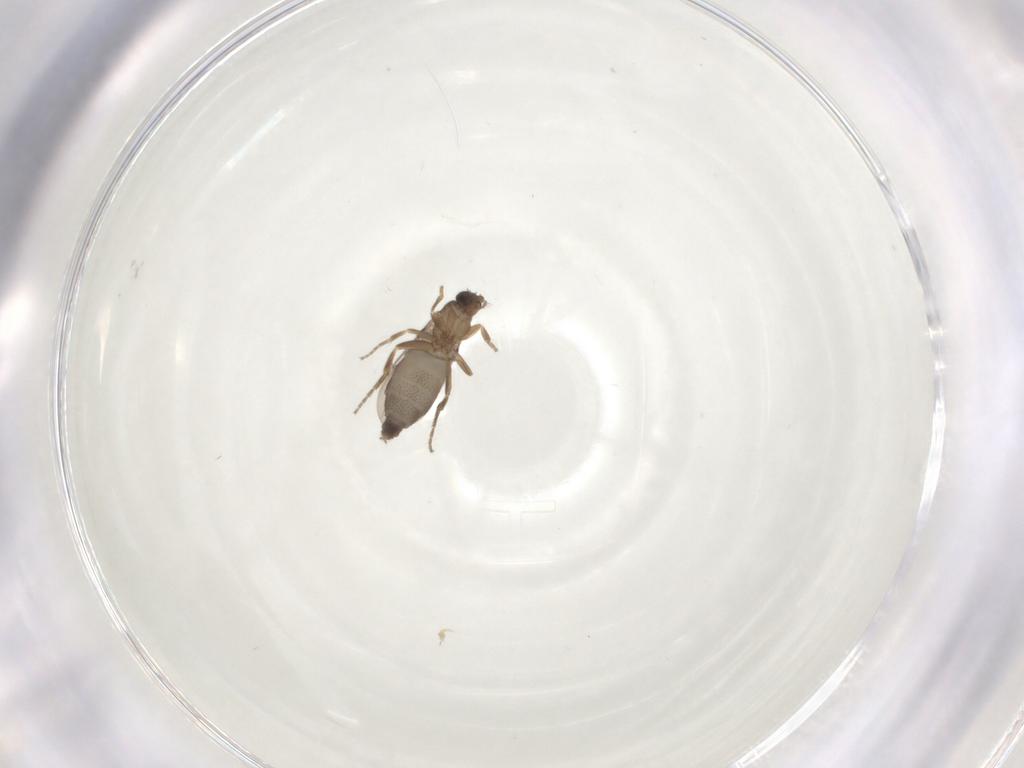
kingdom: Animalia
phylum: Arthropoda
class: Insecta
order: Diptera
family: Phoridae
